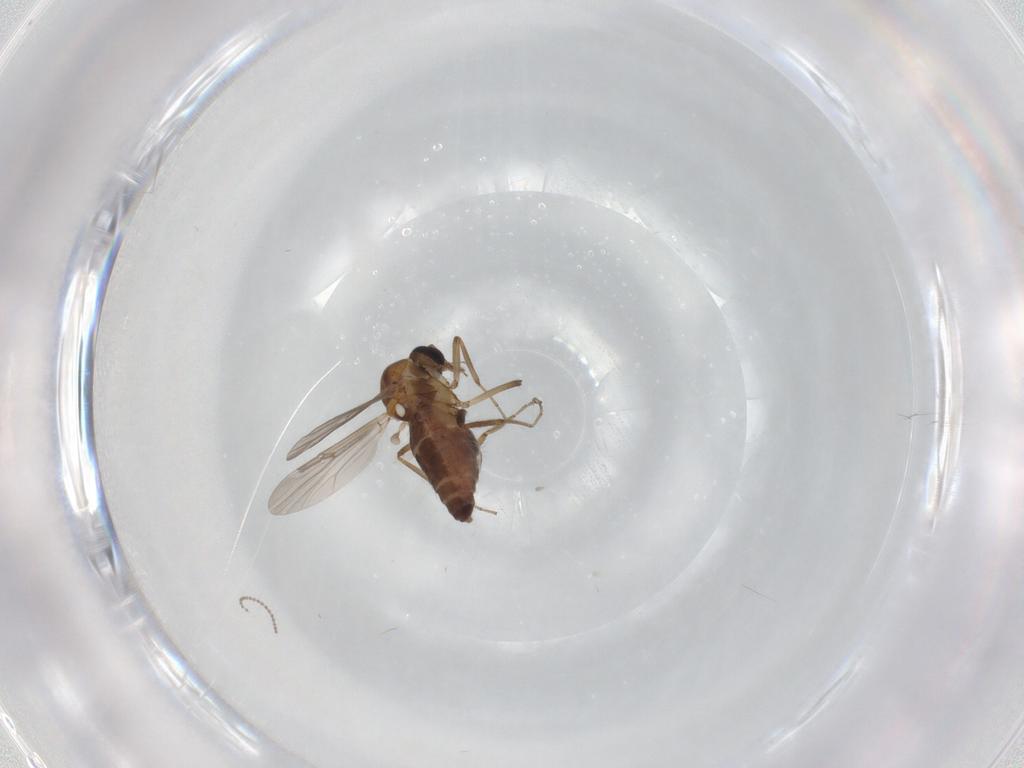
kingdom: Animalia
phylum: Arthropoda
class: Insecta
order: Diptera
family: Ceratopogonidae
